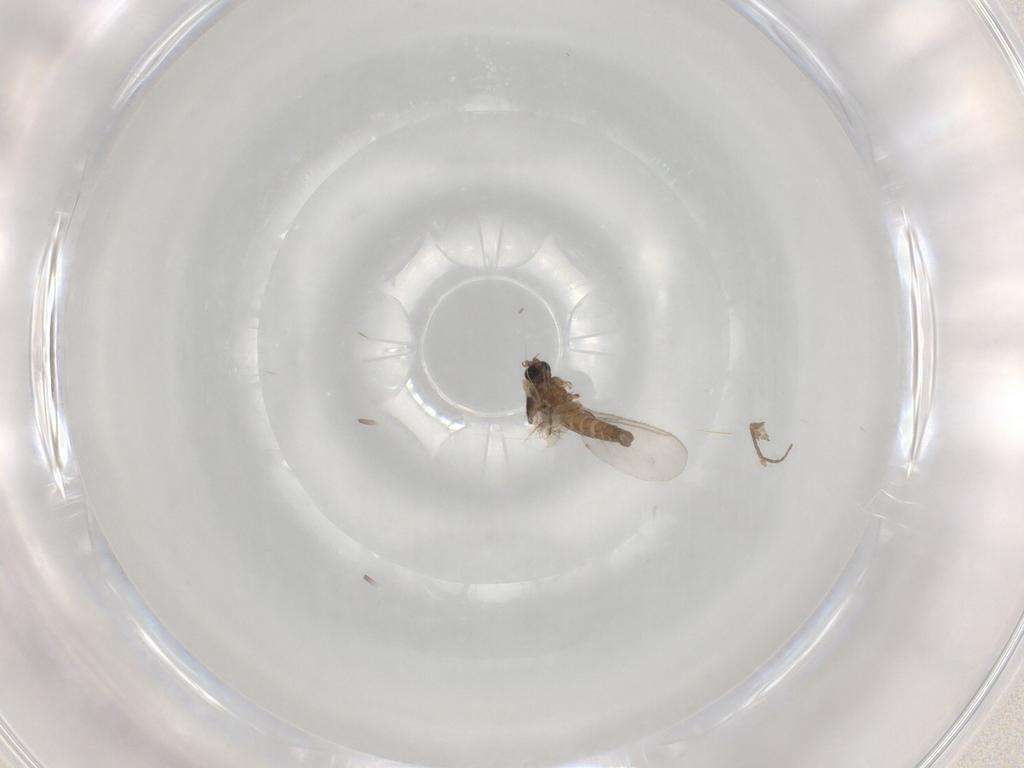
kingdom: Animalia
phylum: Arthropoda
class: Insecta
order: Diptera
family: Sciaridae
